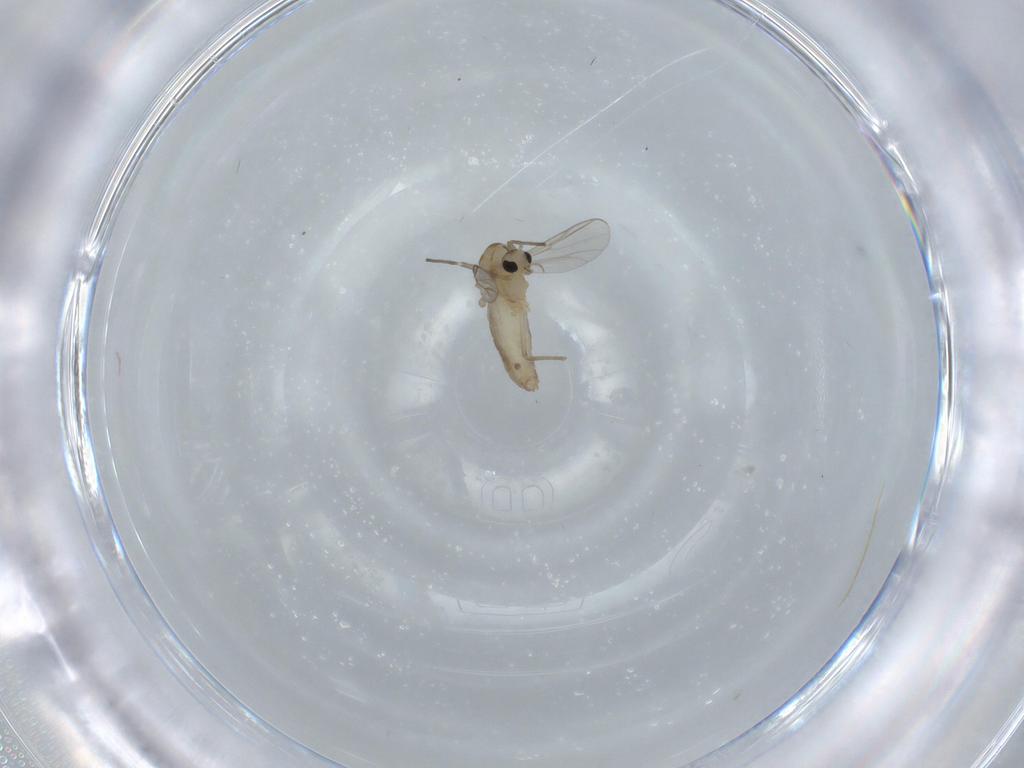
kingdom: Animalia
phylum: Arthropoda
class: Insecta
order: Diptera
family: Chironomidae
